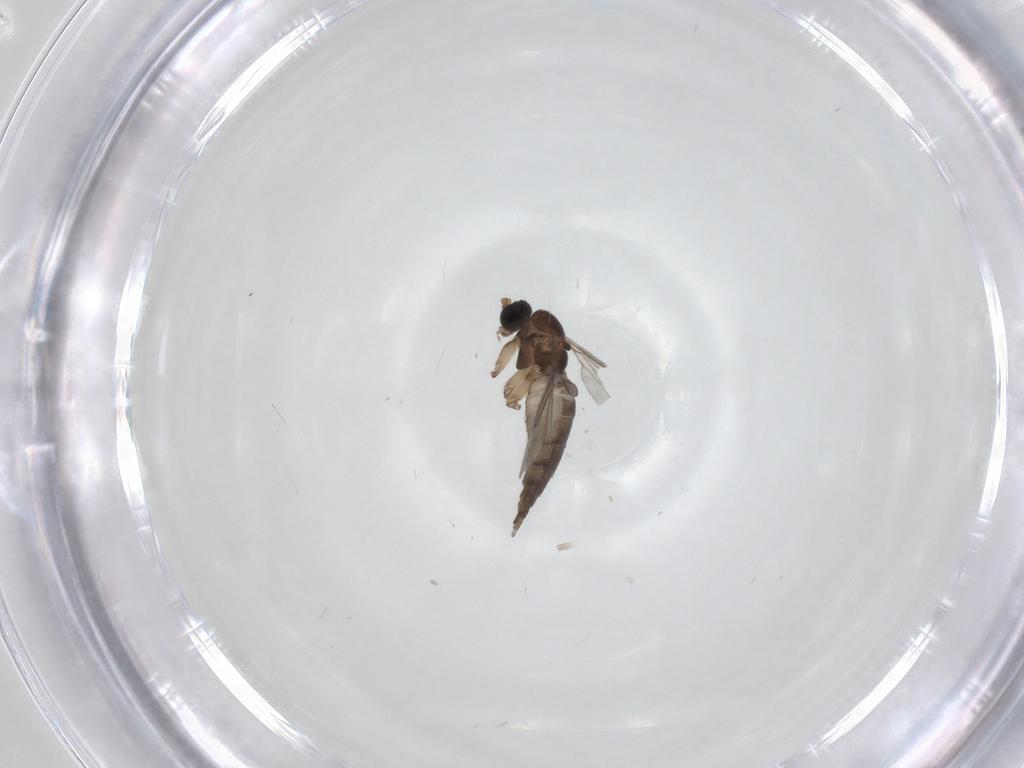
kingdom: Animalia
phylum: Arthropoda
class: Insecta
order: Diptera
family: Sciaridae
